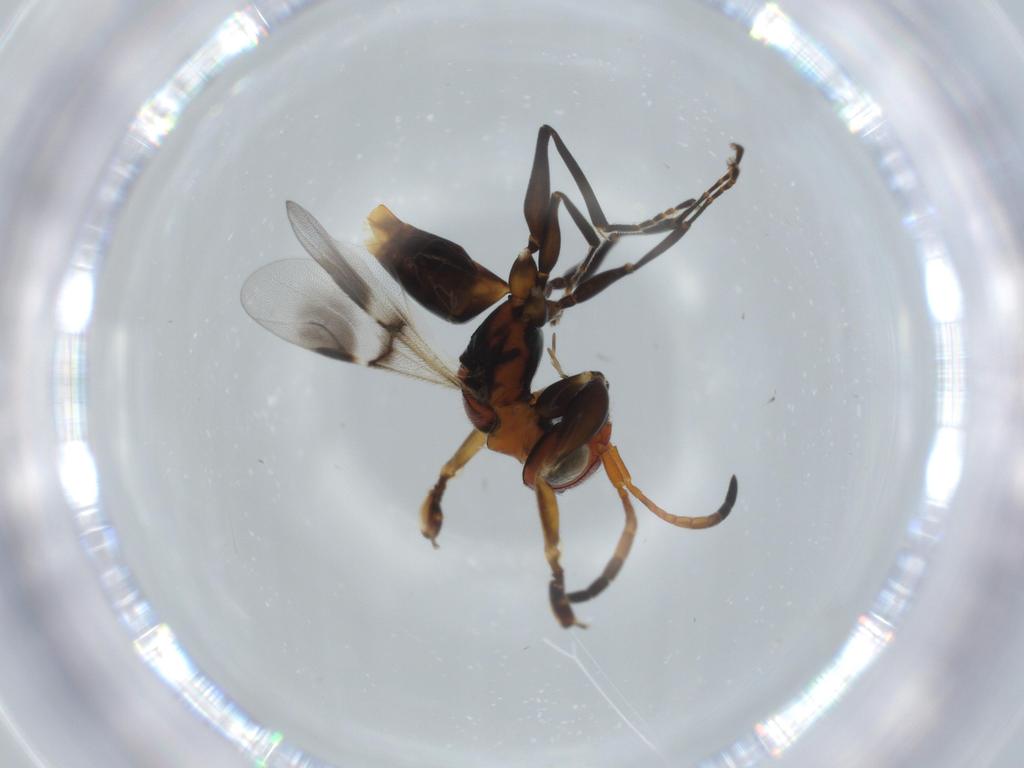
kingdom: Animalia
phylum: Arthropoda
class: Insecta
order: Hymenoptera
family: Dryinidae
